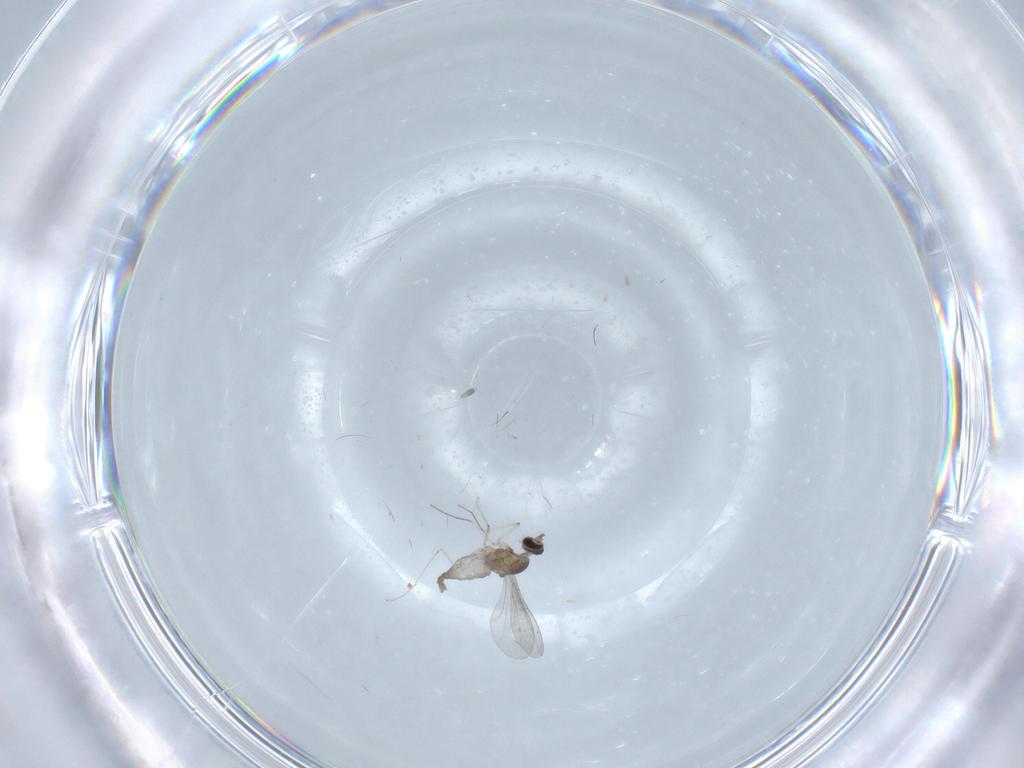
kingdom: Animalia
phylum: Arthropoda
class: Insecta
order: Diptera
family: Cecidomyiidae
